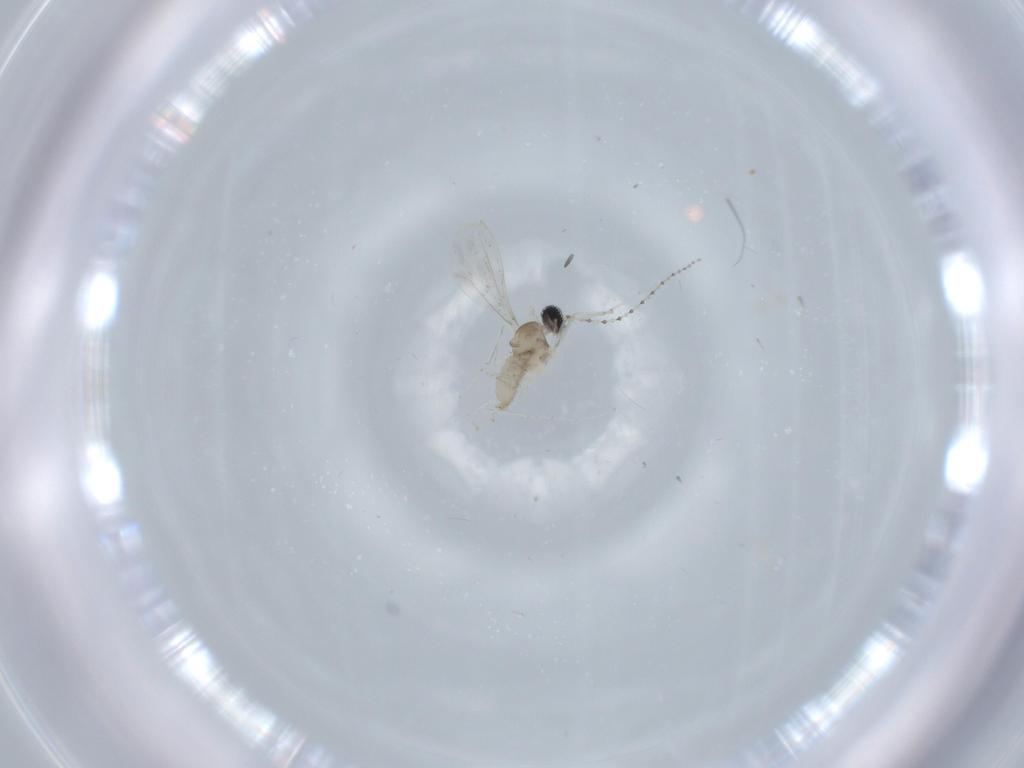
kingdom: Animalia
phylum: Arthropoda
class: Insecta
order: Diptera
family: Cecidomyiidae
